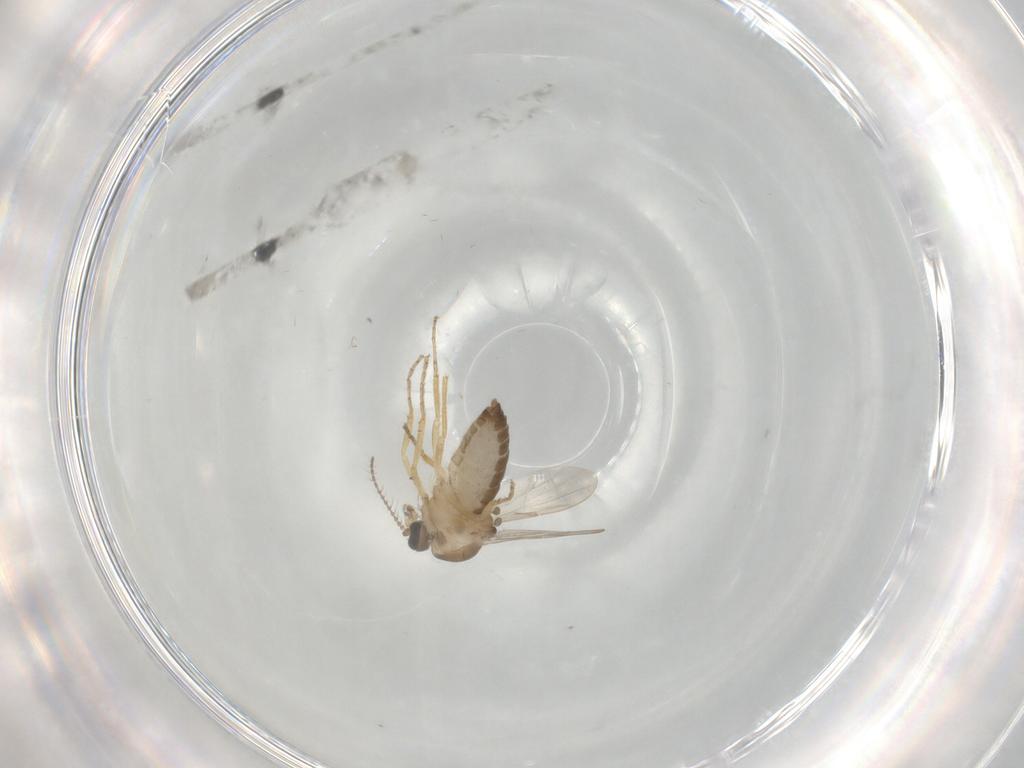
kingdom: Animalia
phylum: Arthropoda
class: Insecta
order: Diptera
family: Ceratopogonidae
